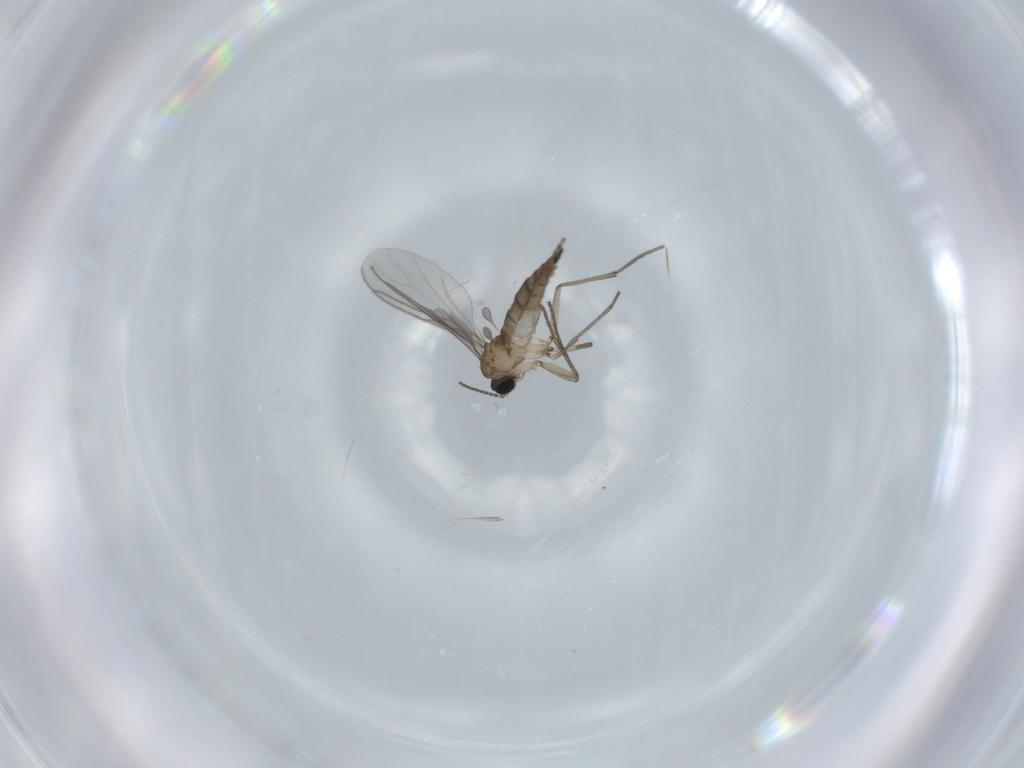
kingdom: Animalia
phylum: Arthropoda
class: Insecta
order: Diptera
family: Sciaridae
